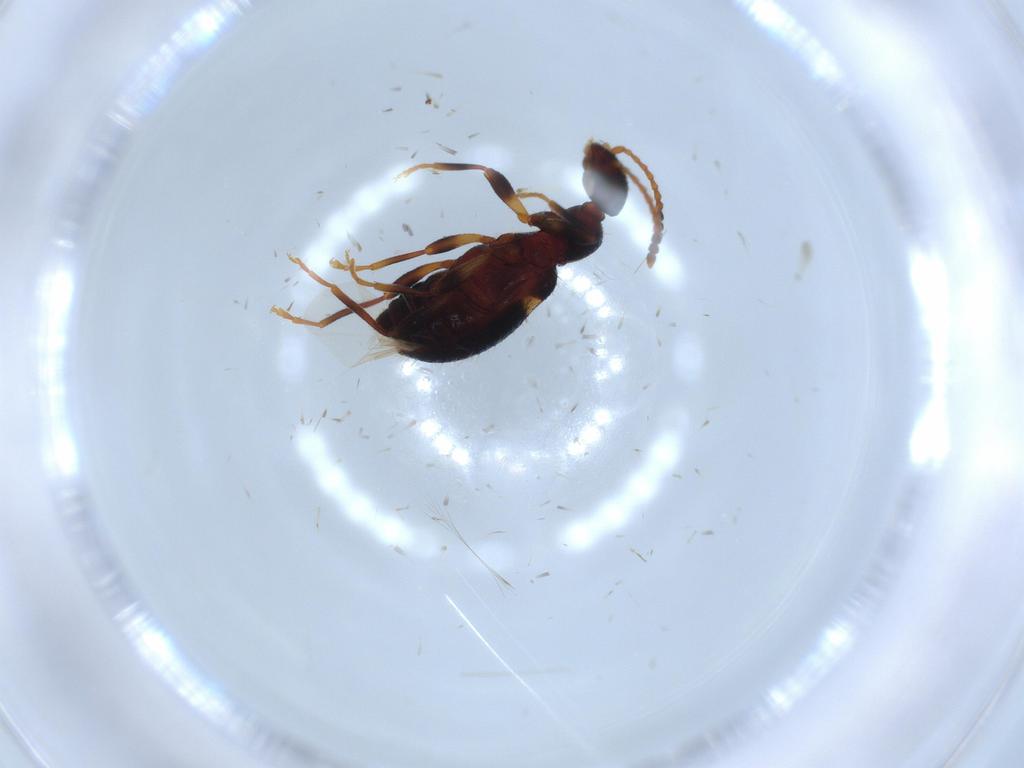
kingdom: Animalia
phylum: Arthropoda
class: Insecta
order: Coleoptera
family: Anthicidae
